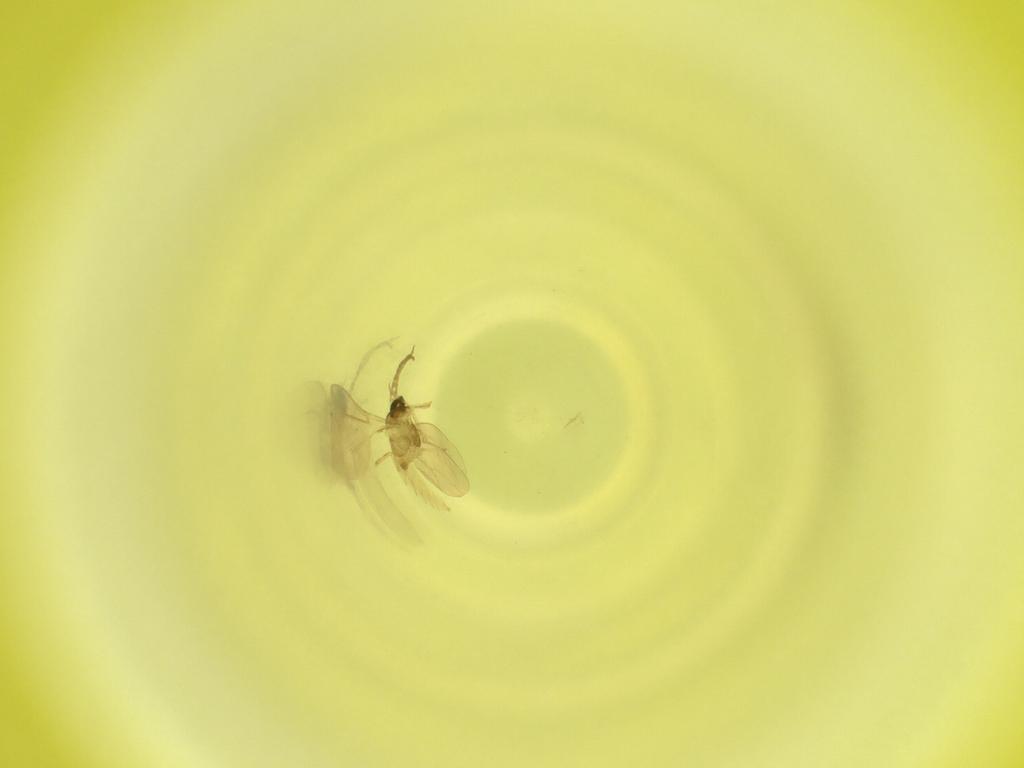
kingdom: Animalia
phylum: Arthropoda
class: Insecta
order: Diptera
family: Cecidomyiidae
